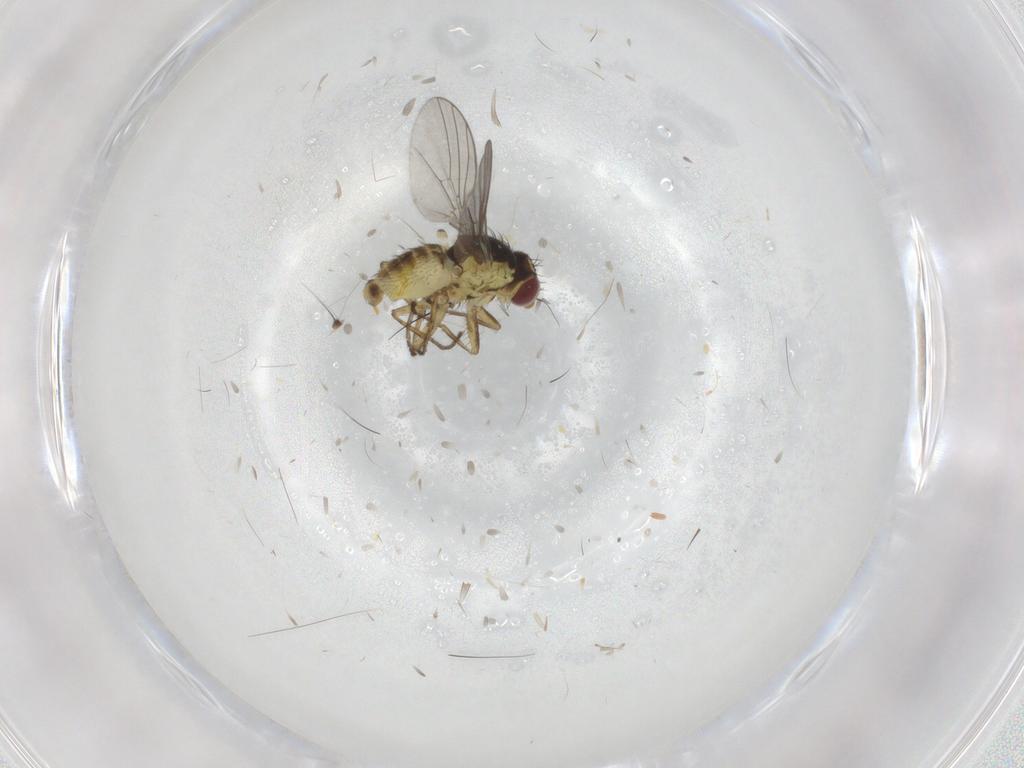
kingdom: Animalia
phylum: Arthropoda
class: Insecta
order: Diptera
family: Agromyzidae
